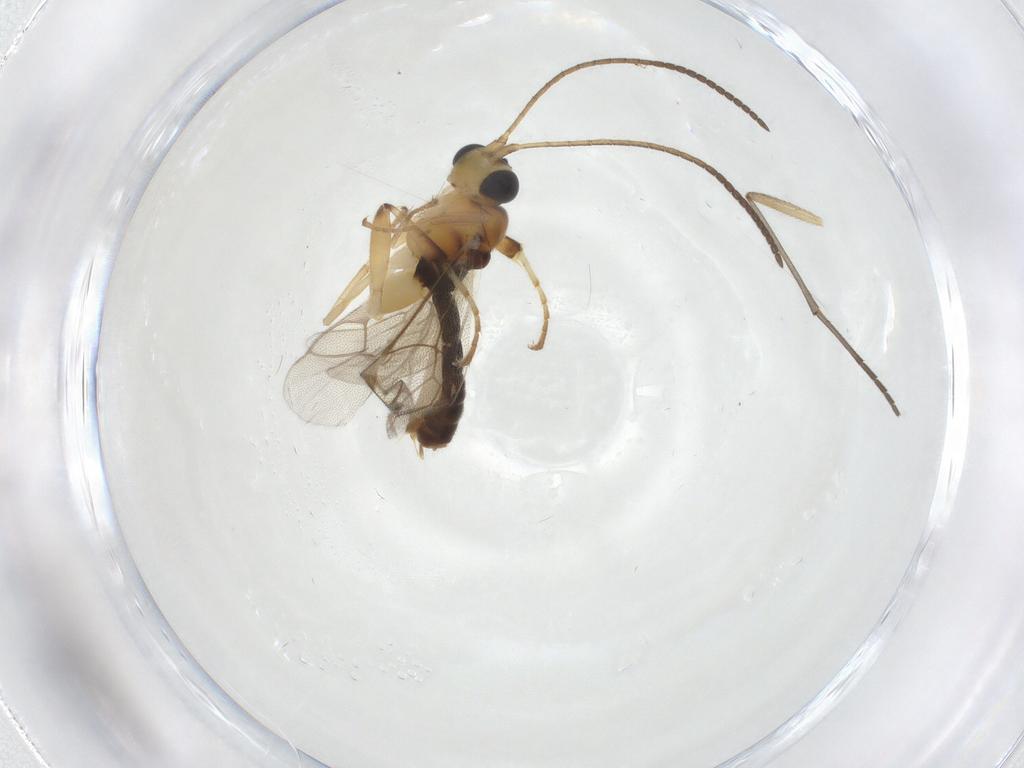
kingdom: Animalia
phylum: Arthropoda
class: Insecta
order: Hymenoptera
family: Ichneumonidae
